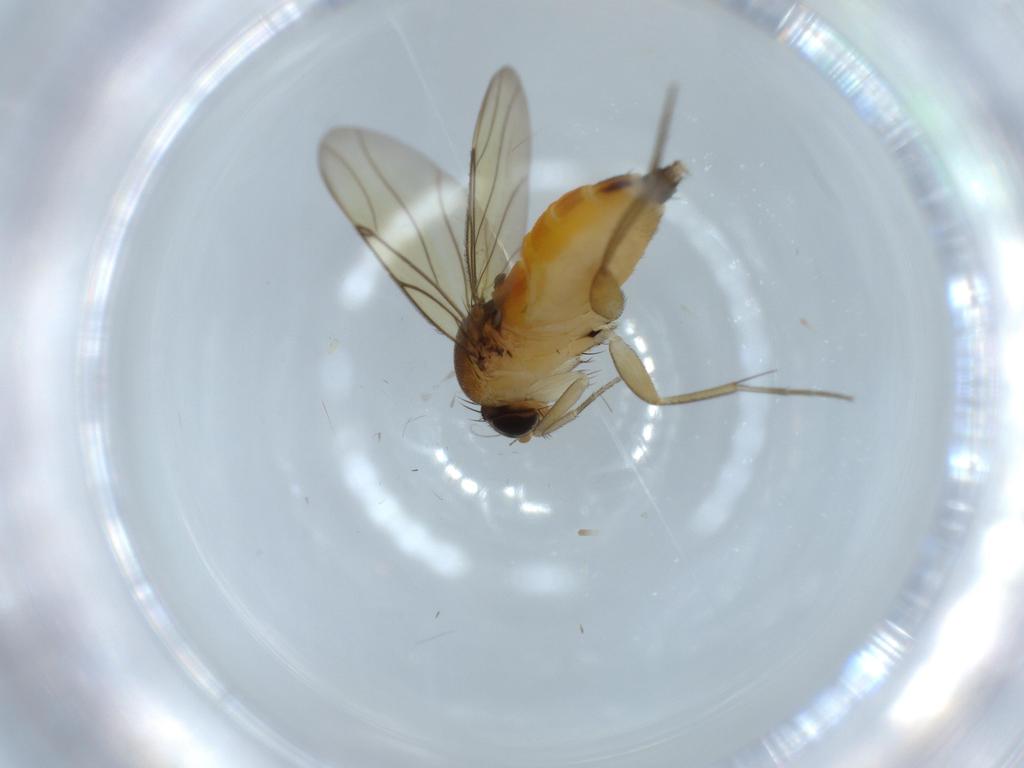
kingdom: Animalia
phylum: Arthropoda
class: Insecta
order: Diptera
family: Phoridae
